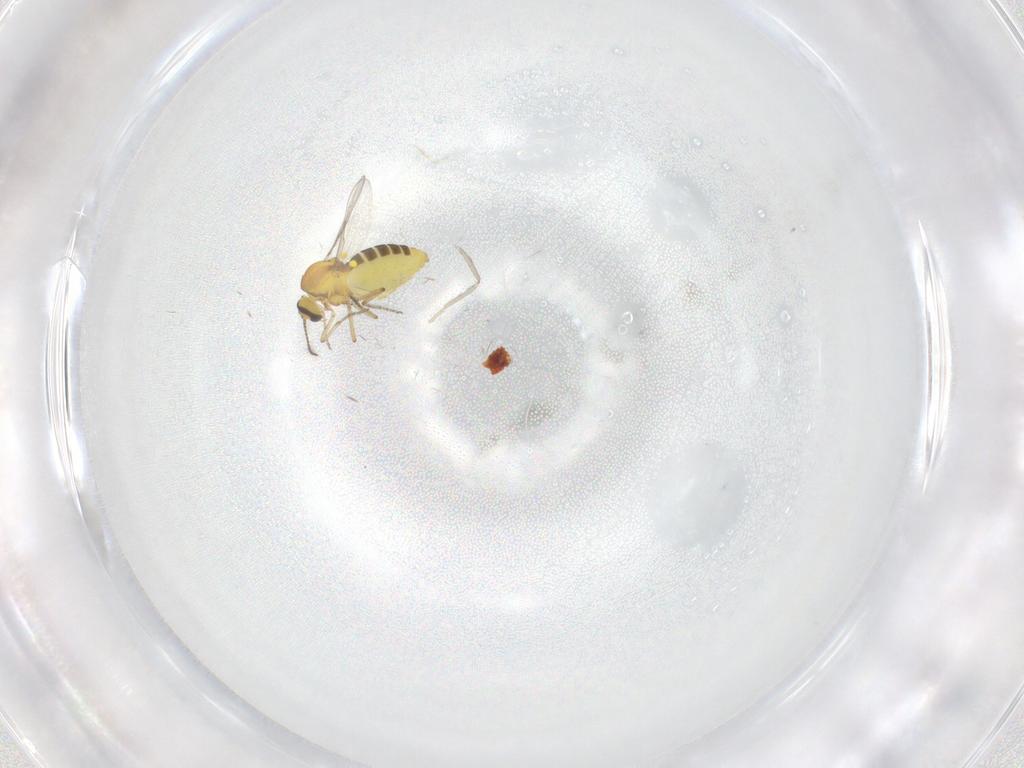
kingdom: Animalia
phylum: Arthropoda
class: Insecta
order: Diptera
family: Ceratopogonidae
